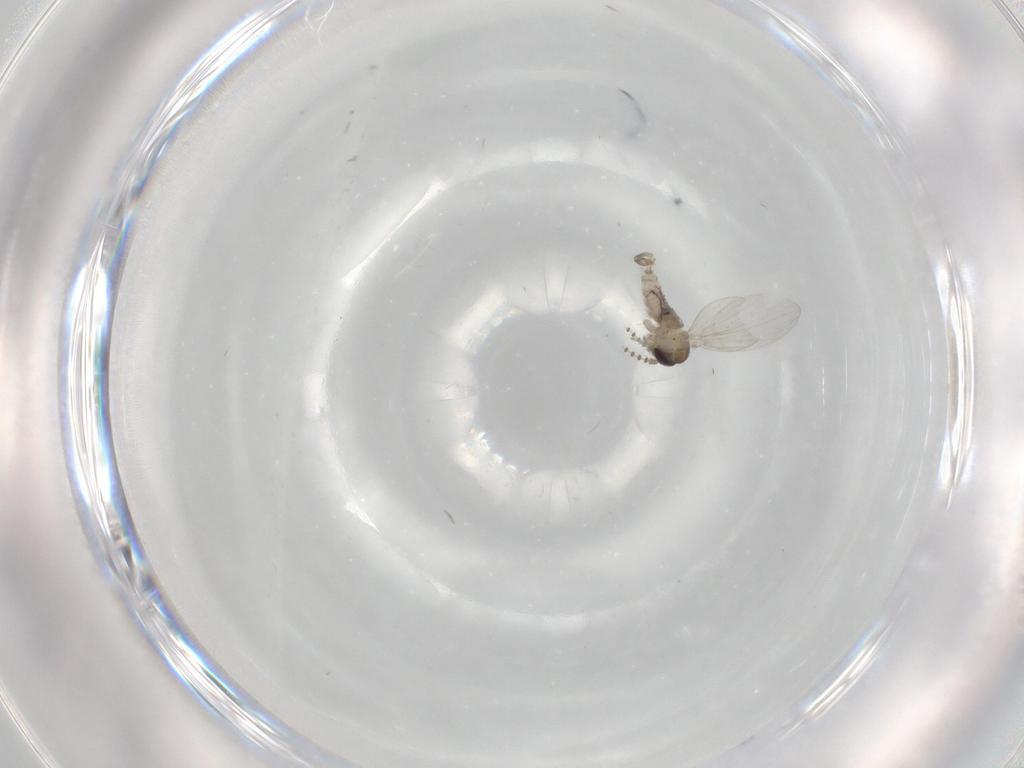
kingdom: Animalia
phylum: Arthropoda
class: Insecta
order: Diptera
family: Psychodidae
